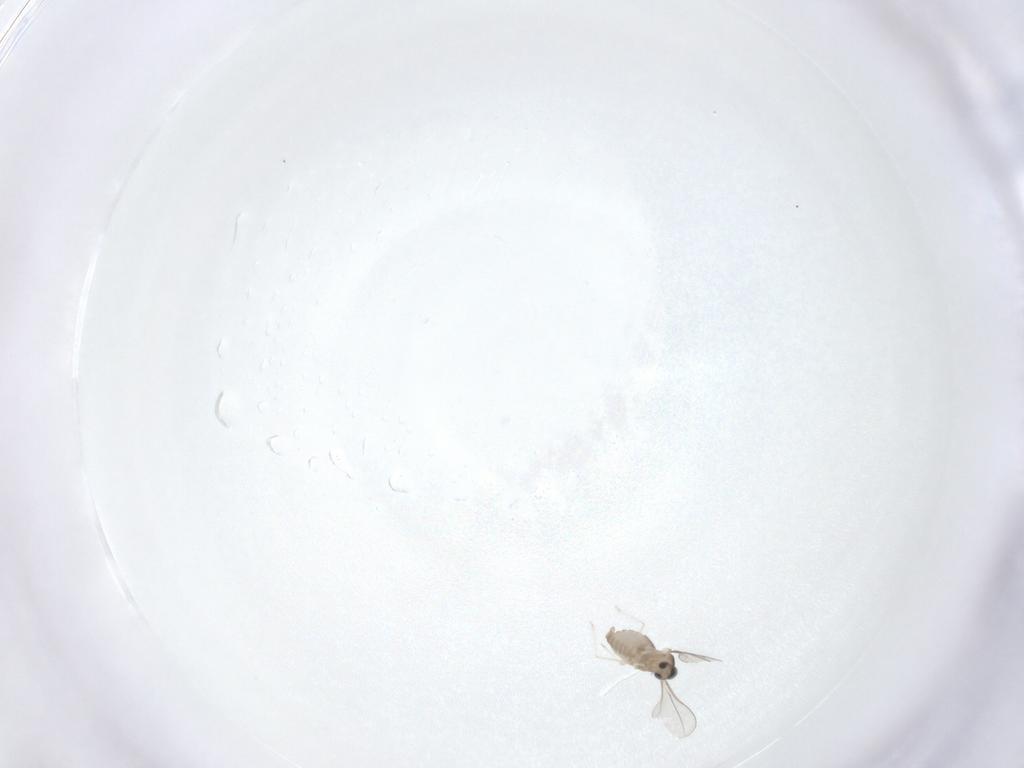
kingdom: Animalia
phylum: Arthropoda
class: Insecta
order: Diptera
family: Cecidomyiidae
